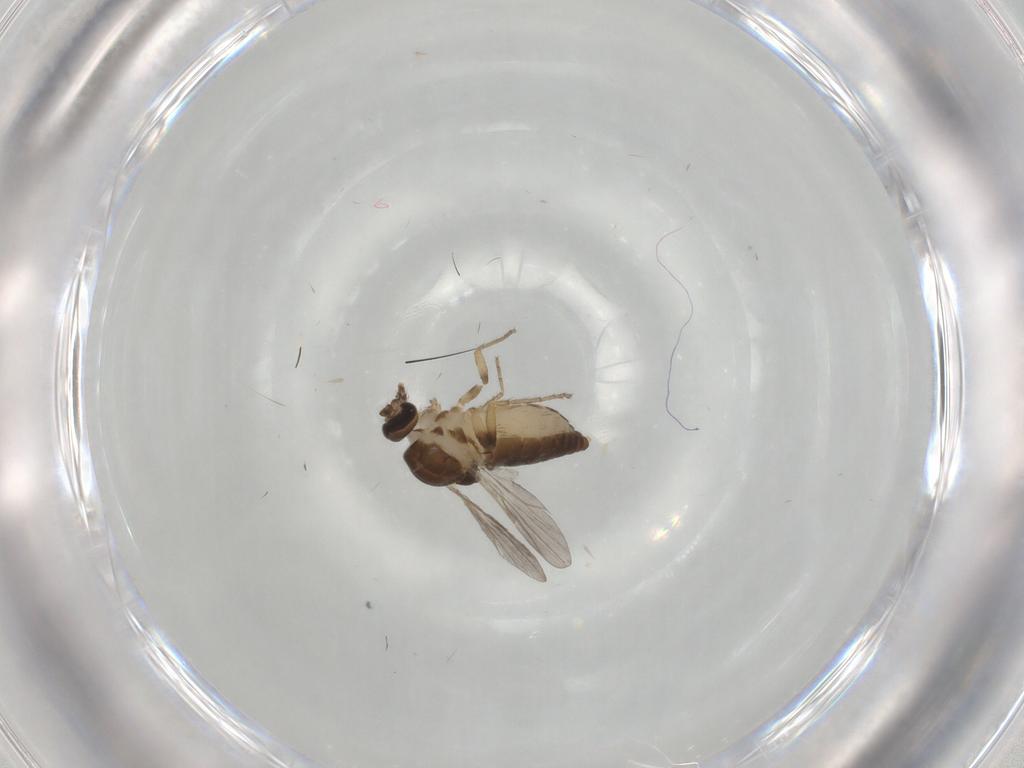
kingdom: Animalia
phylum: Arthropoda
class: Insecta
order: Diptera
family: Ceratopogonidae
